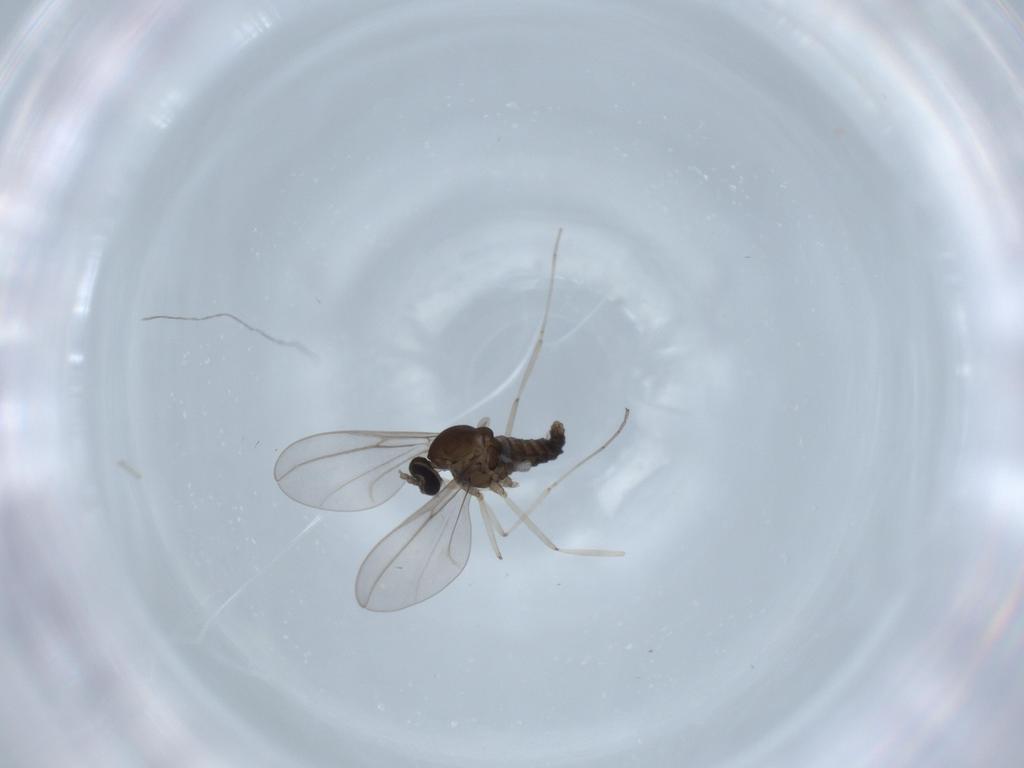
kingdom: Animalia
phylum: Arthropoda
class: Insecta
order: Diptera
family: Cecidomyiidae
